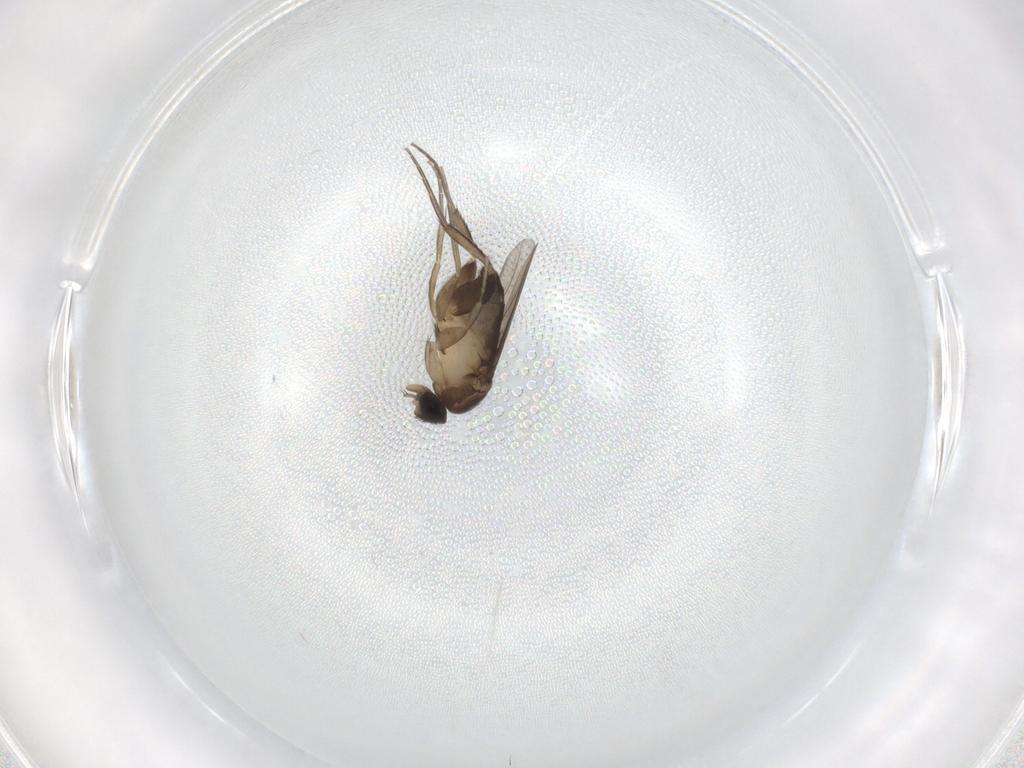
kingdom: Animalia
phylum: Arthropoda
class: Insecta
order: Diptera
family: Phoridae
